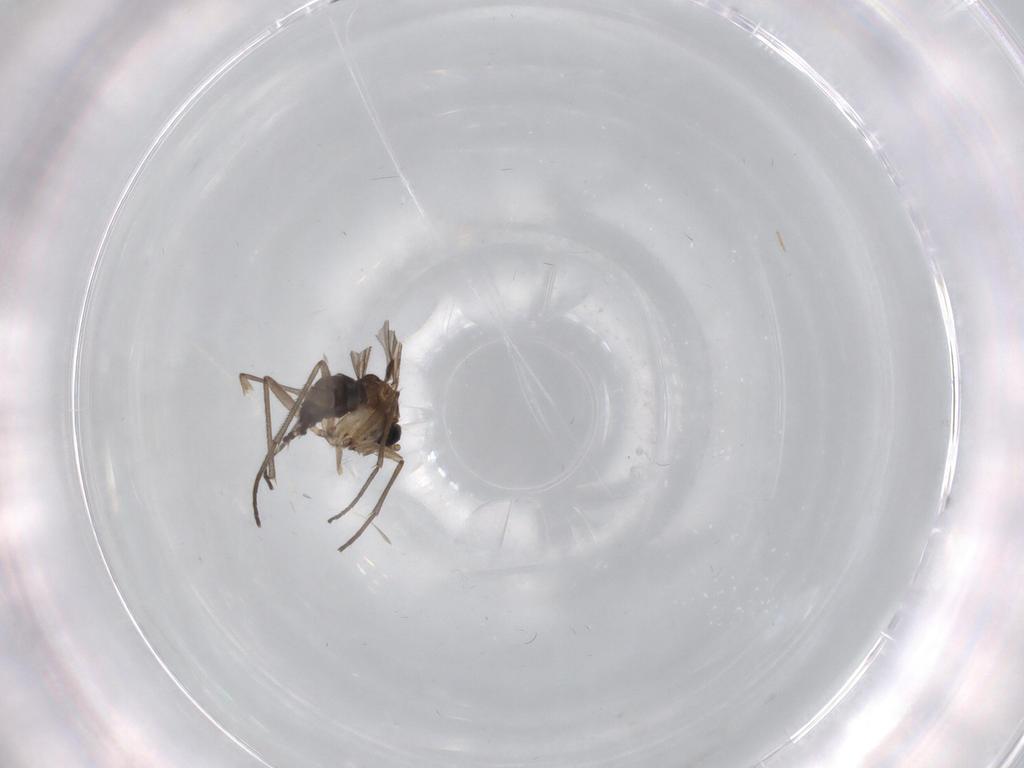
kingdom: Animalia
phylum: Arthropoda
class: Insecta
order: Diptera
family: Cecidomyiidae
